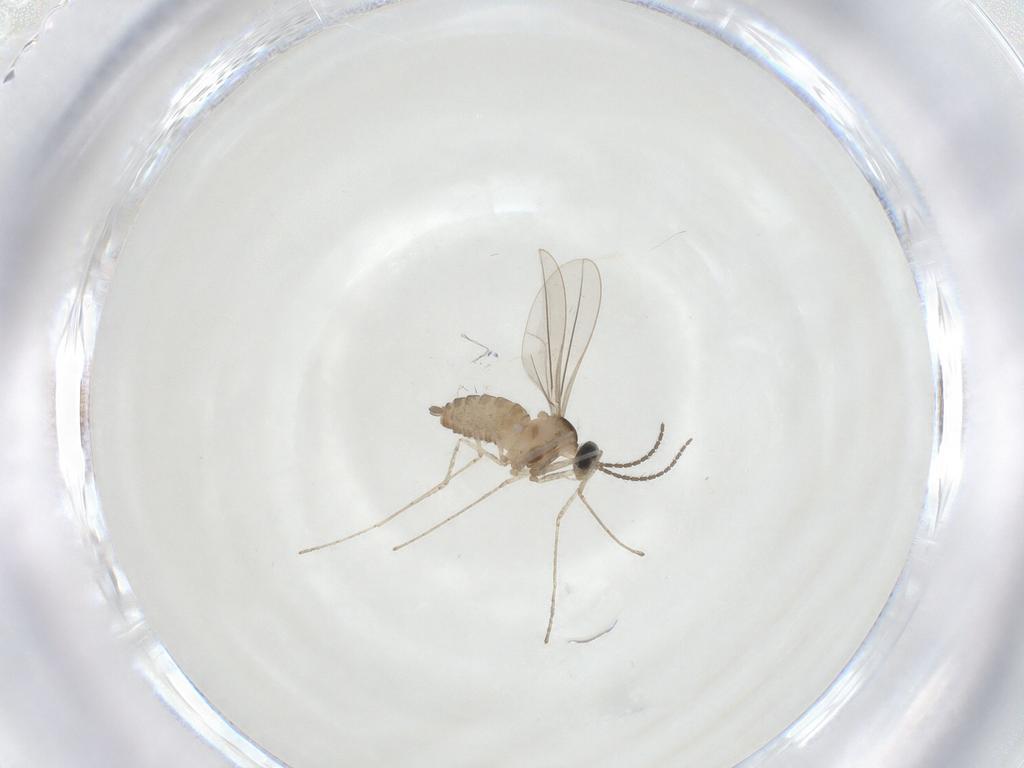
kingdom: Animalia
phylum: Arthropoda
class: Insecta
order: Diptera
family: Cecidomyiidae
